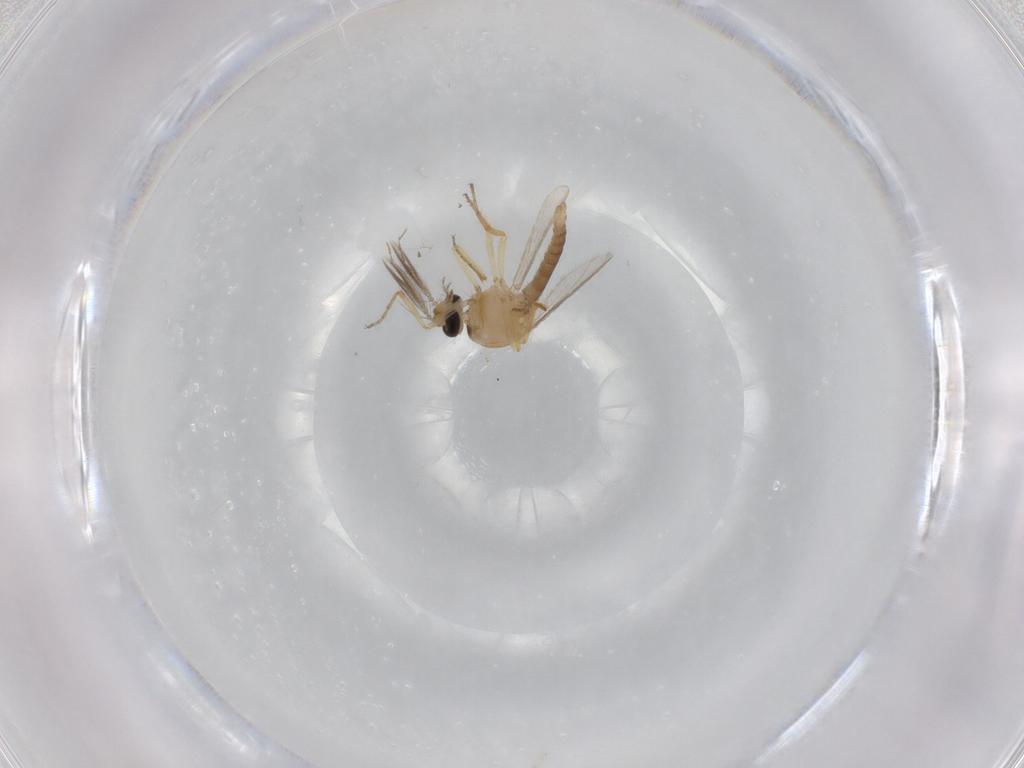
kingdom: Animalia
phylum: Arthropoda
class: Insecta
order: Diptera
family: Ceratopogonidae
